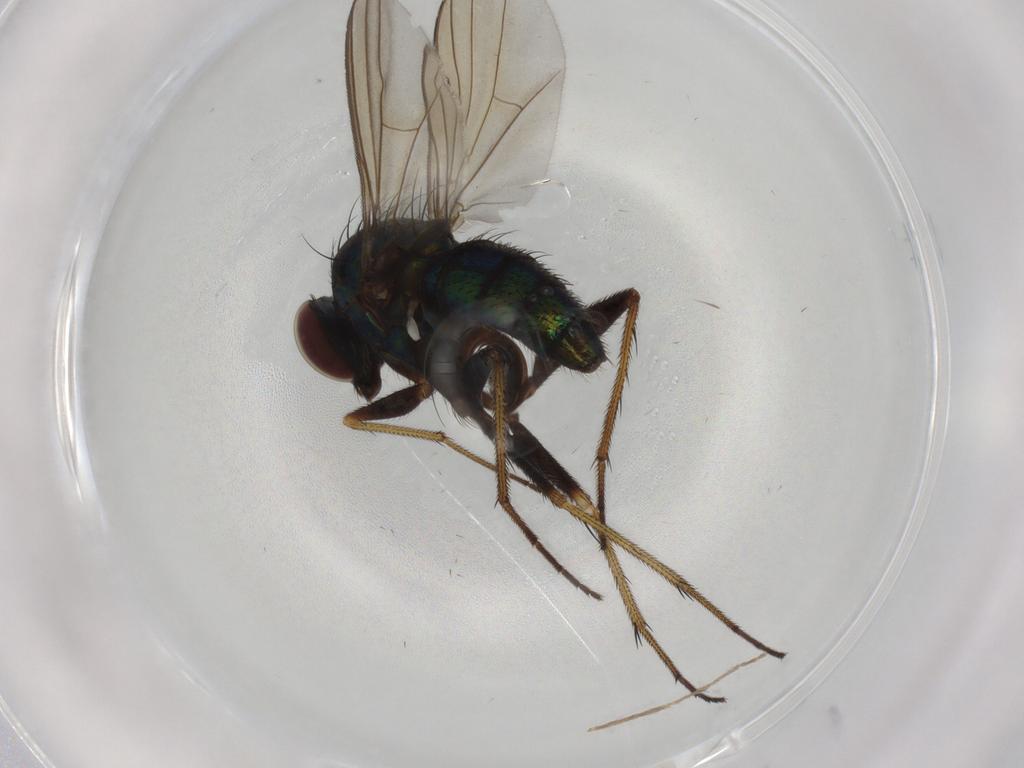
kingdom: Animalia
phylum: Arthropoda
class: Insecta
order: Diptera
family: Dolichopodidae
